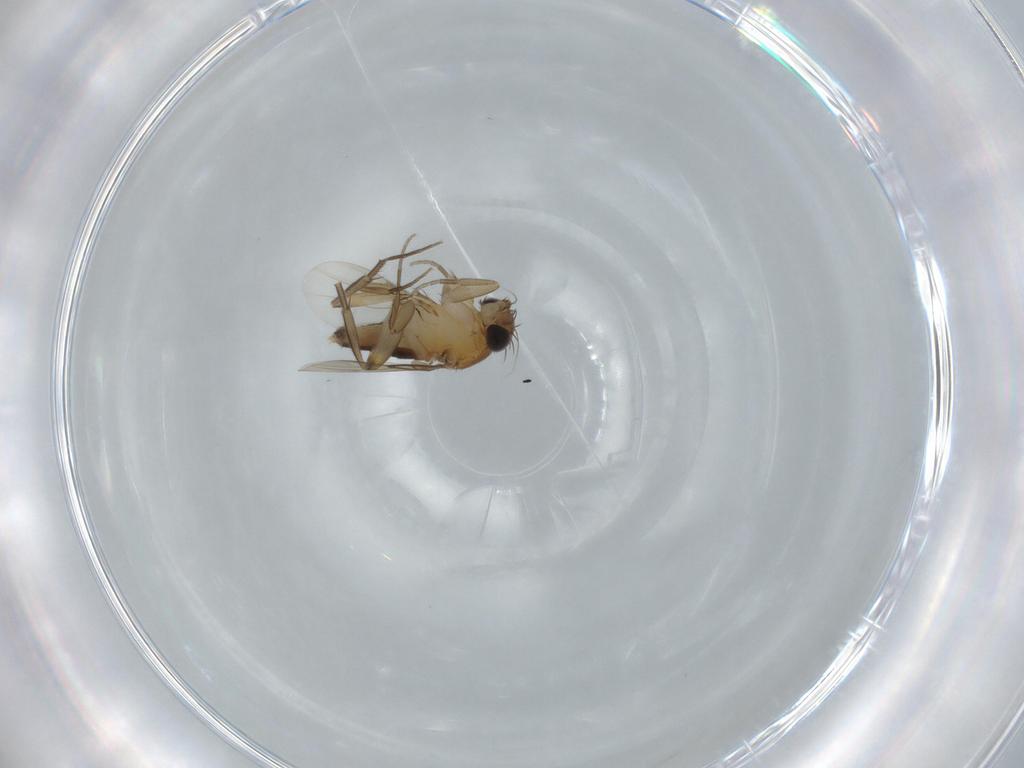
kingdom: Animalia
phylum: Arthropoda
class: Insecta
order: Diptera
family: Phoridae
